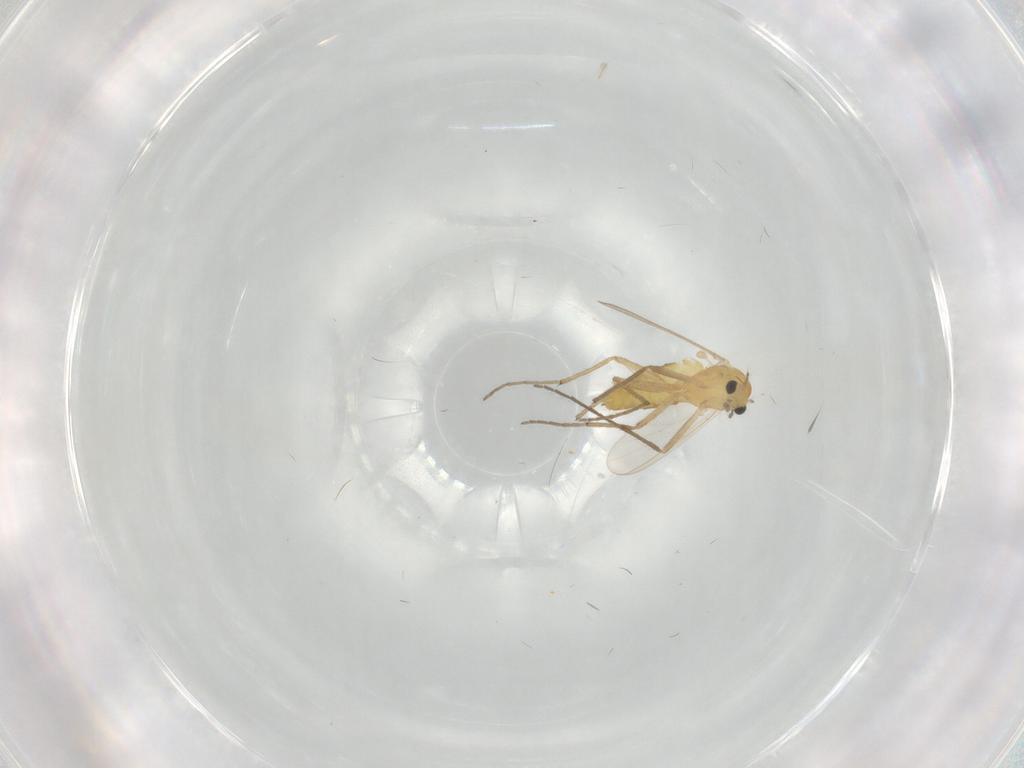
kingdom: Animalia
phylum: Arthropoda
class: Insecta
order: Diptera
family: Chironomidae
